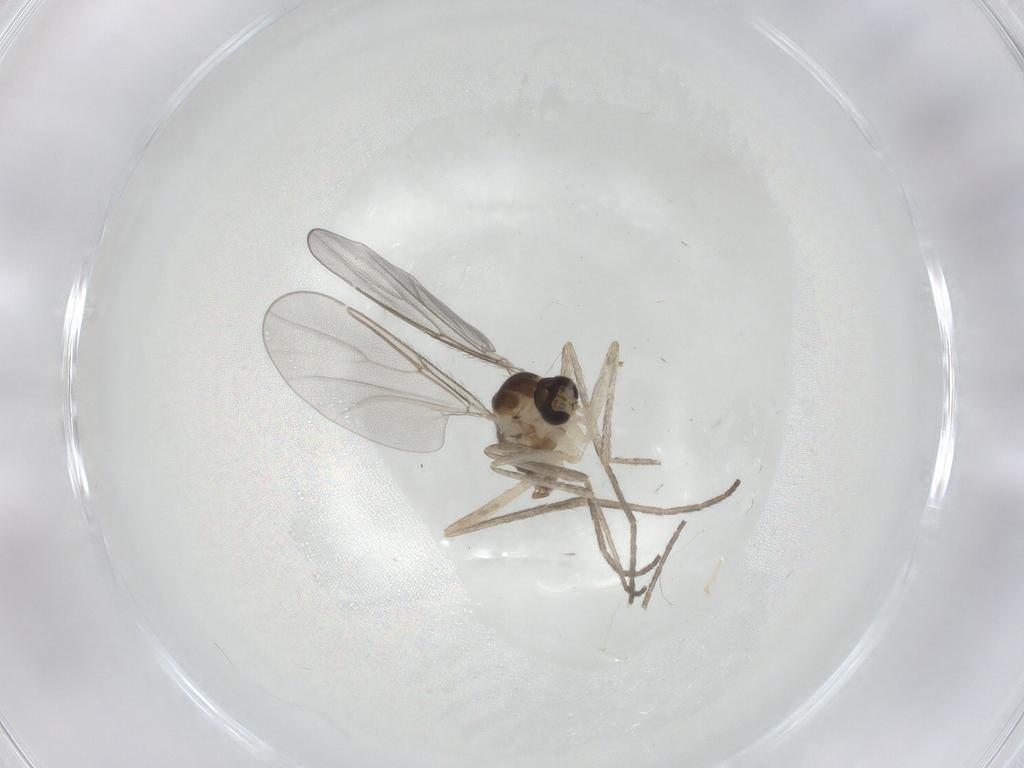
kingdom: Animalia
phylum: Arthropoda
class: Insecta
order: Diptera
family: Cecidomyiidae
